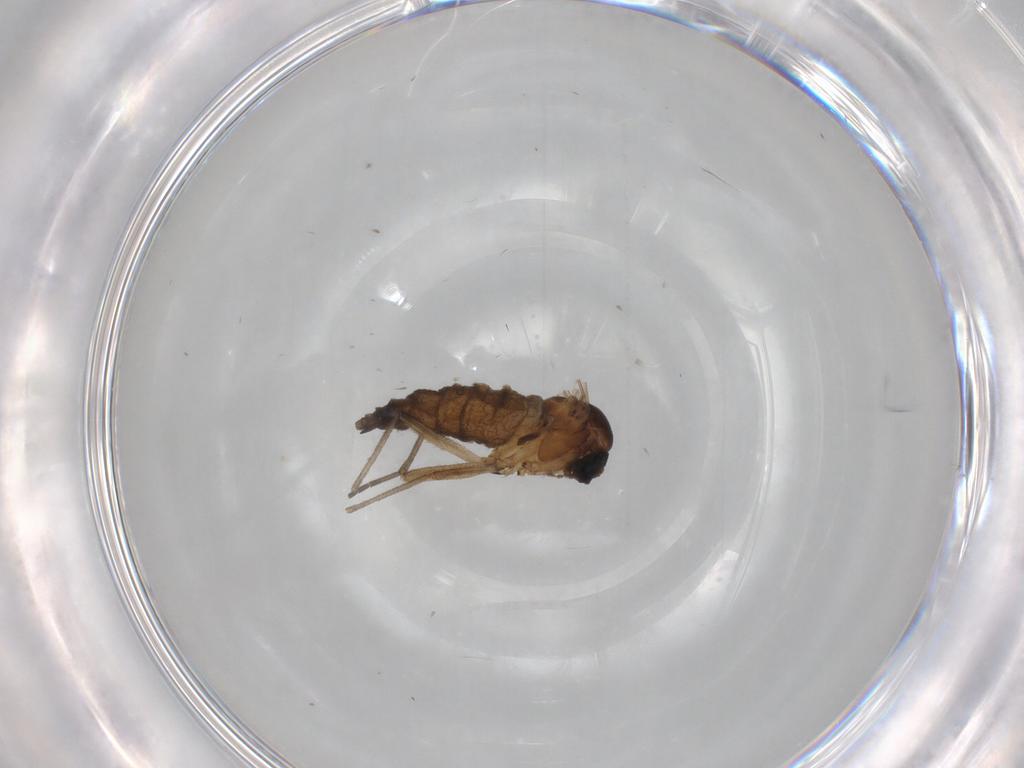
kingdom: Animalia
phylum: Arthropoda
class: Insecta
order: Diptera
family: Sciaridae
